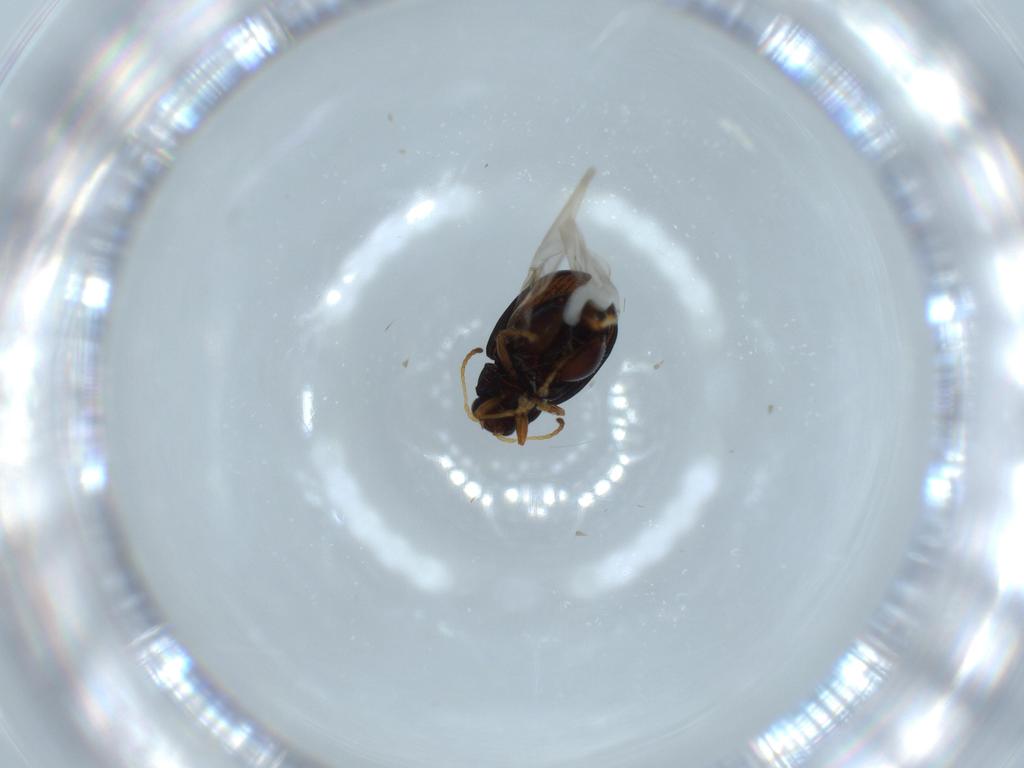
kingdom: Animalia
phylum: Arthropoda
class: Insecta
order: Coleoptera
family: Chrysomelidae
